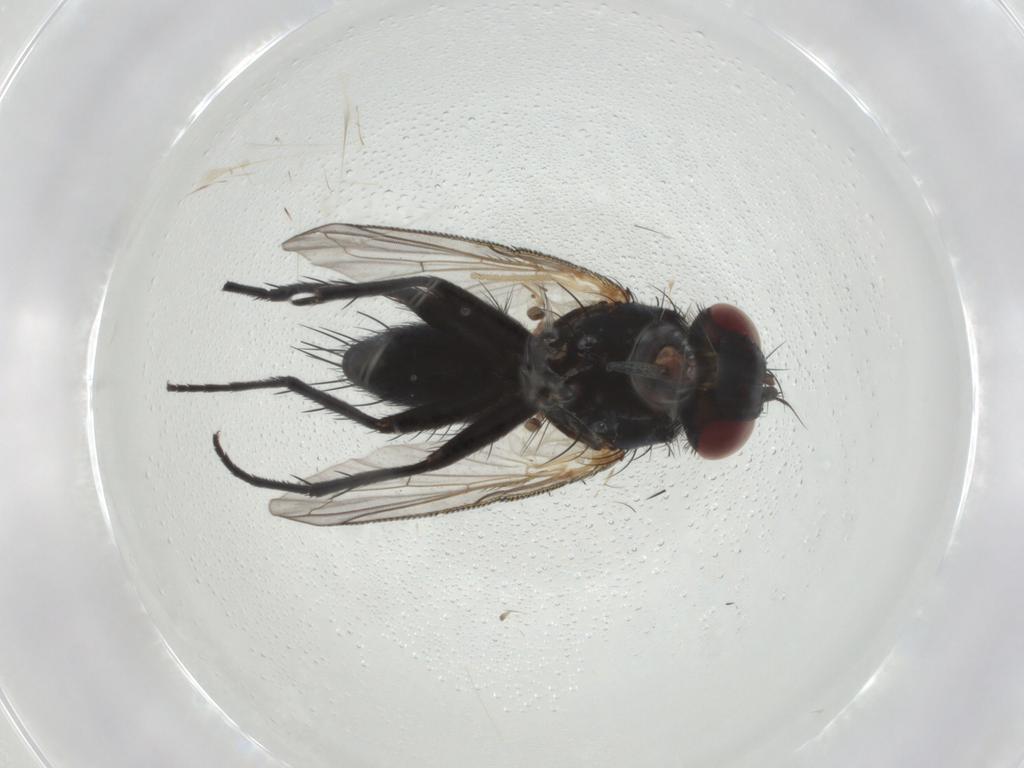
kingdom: Animalia
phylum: Arthropoda
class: Insecta
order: Diptera
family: Tachinidae
